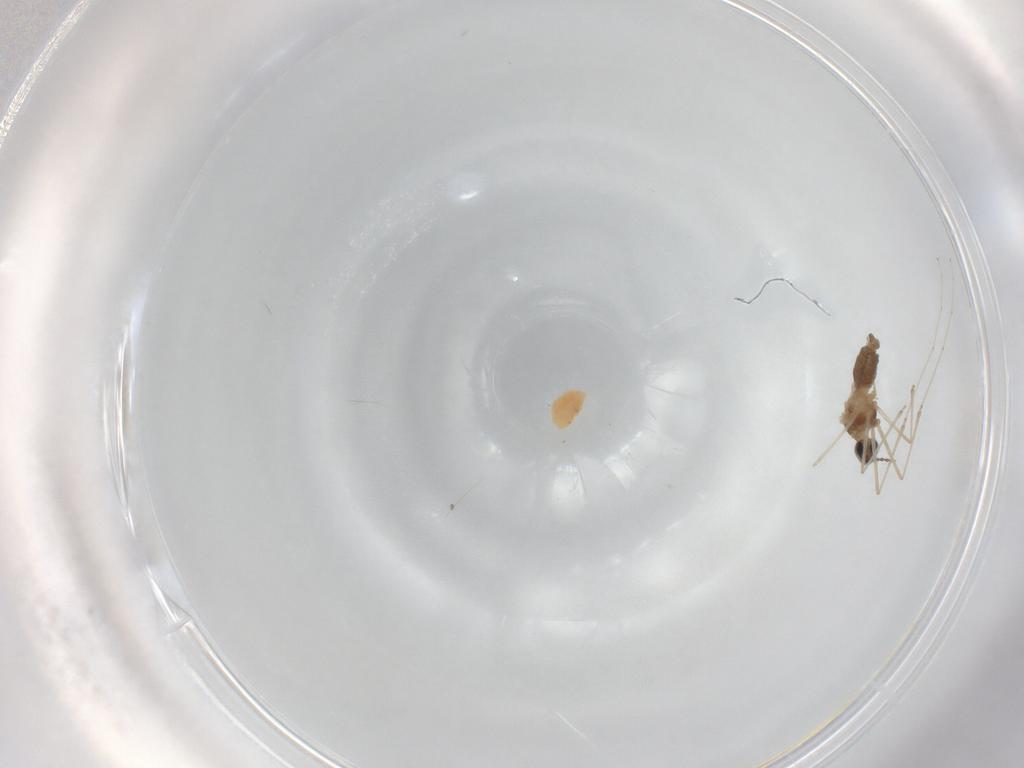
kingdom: Animalia
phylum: Arthropoda
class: Insecta
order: Diptera
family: Cecidomyiidae
